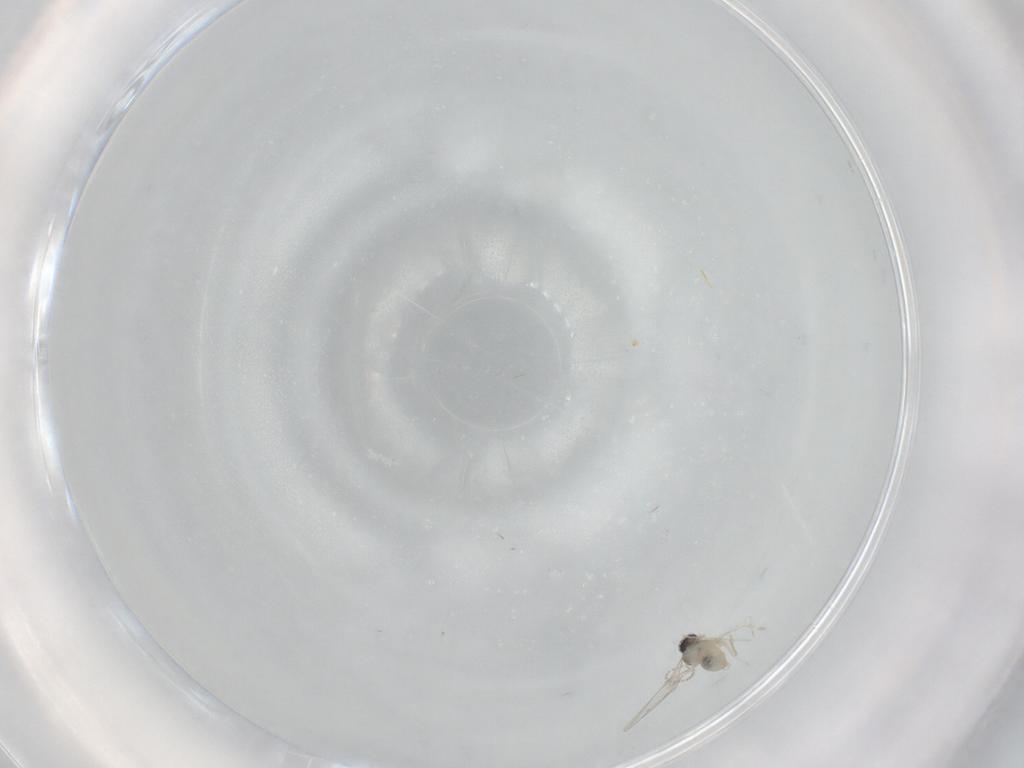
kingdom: Animalia
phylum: Arthropoda
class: Insecta
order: Diptera
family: Cecidomyiidae
